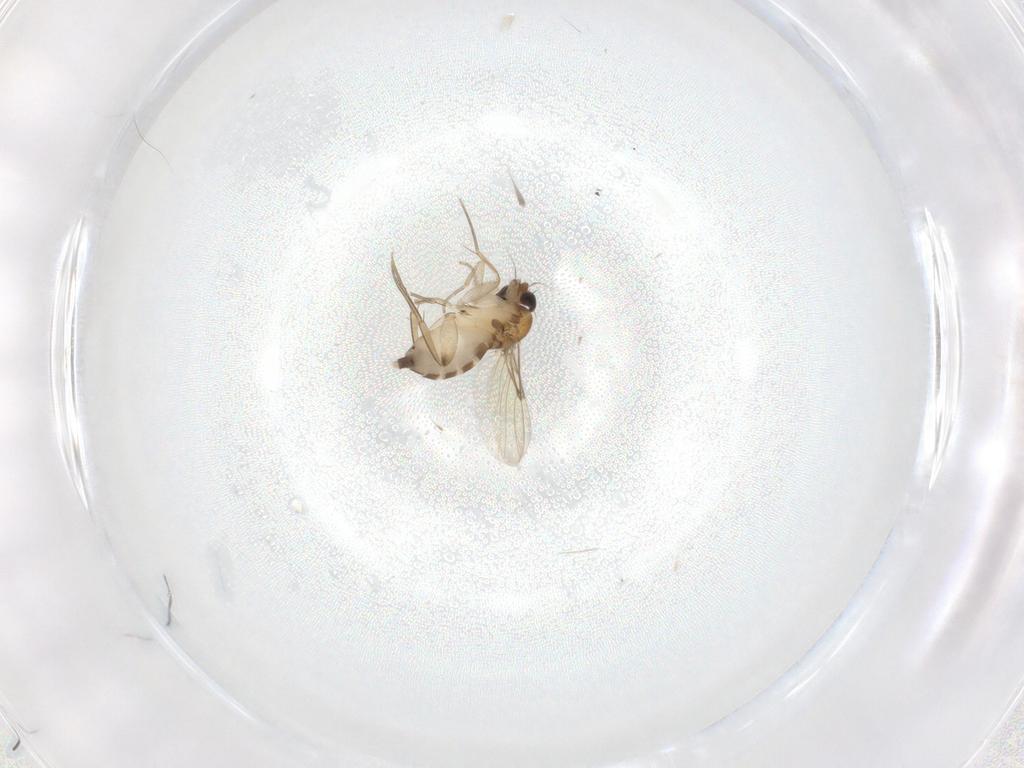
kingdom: Animalia
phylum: Arthropoda
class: Insecta
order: Diptera
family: Phoridae
